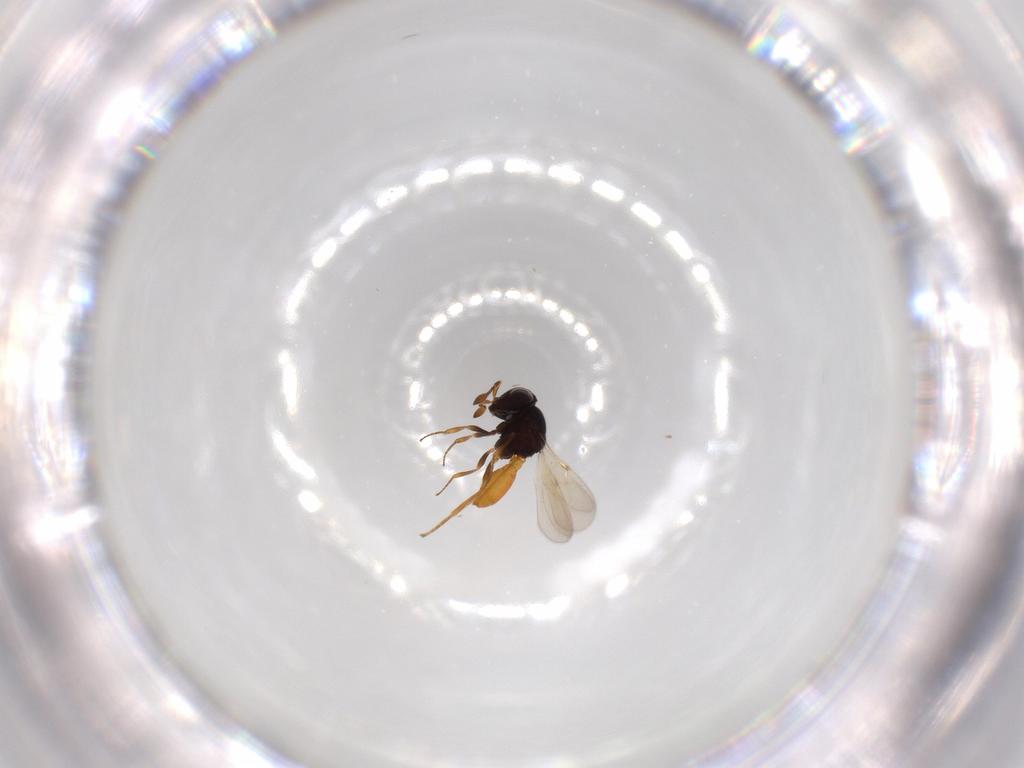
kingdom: Animalia
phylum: Arthropoda
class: Insecta
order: Hymenoptera
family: Scelionidae
